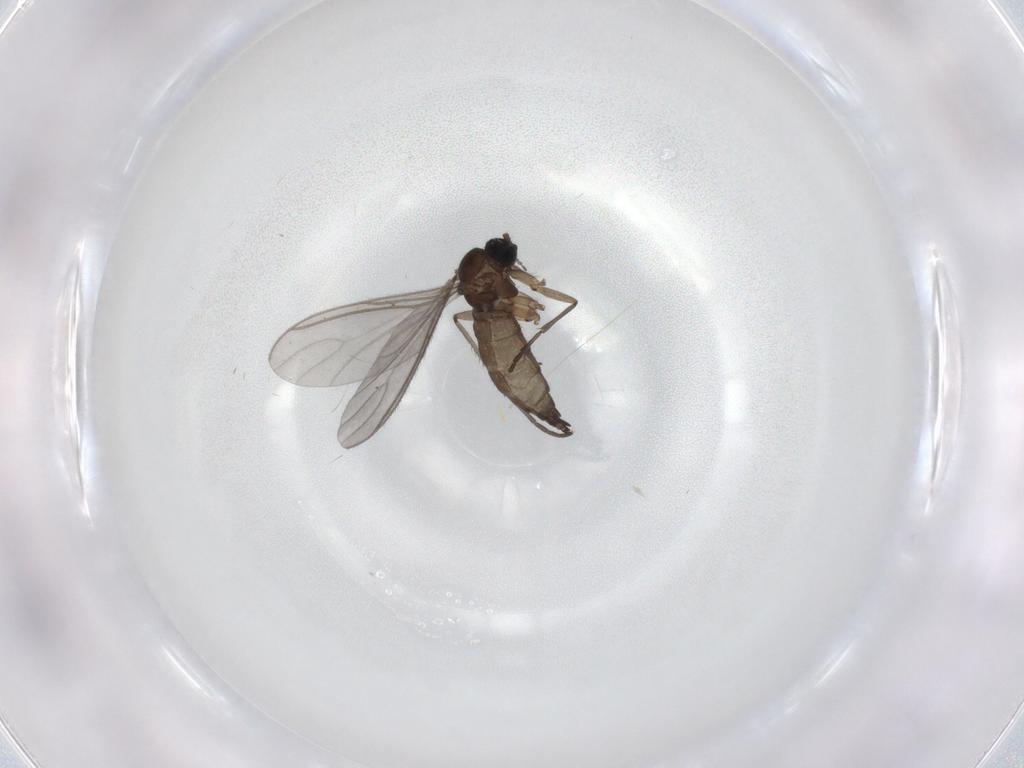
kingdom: Animalia
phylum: Arthropoda
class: Insecta
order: Diptera
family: Sciaridae
